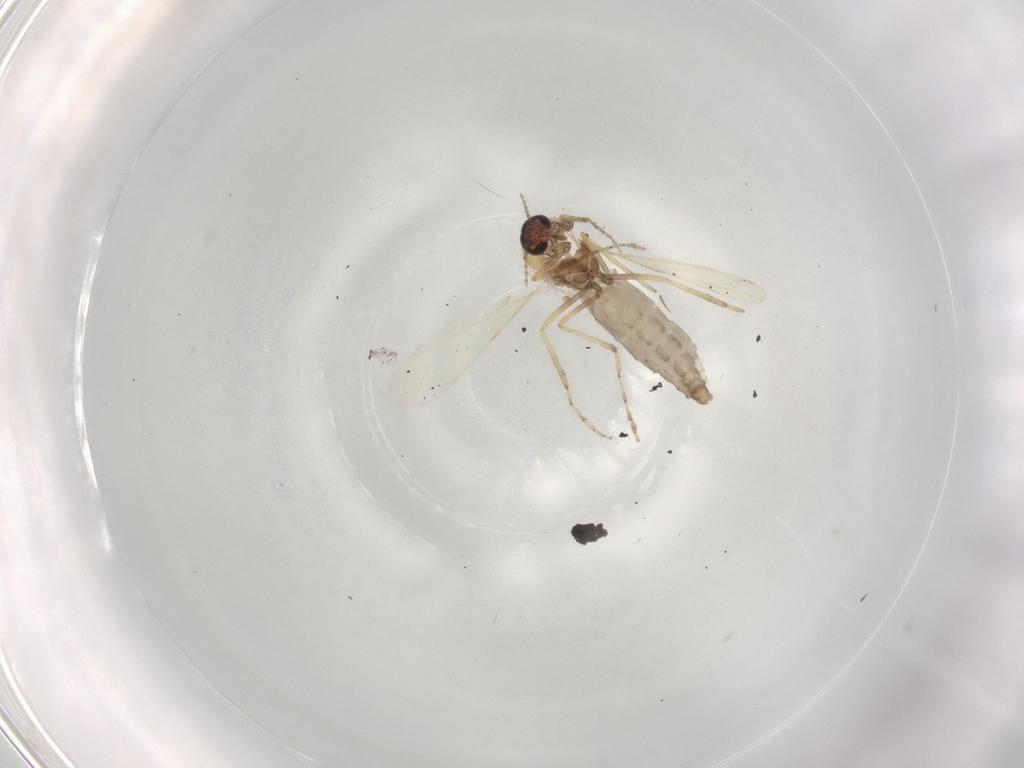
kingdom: Animalia
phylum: Arthropoda
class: Insecta
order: Diptera
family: Ceratopogonidae
